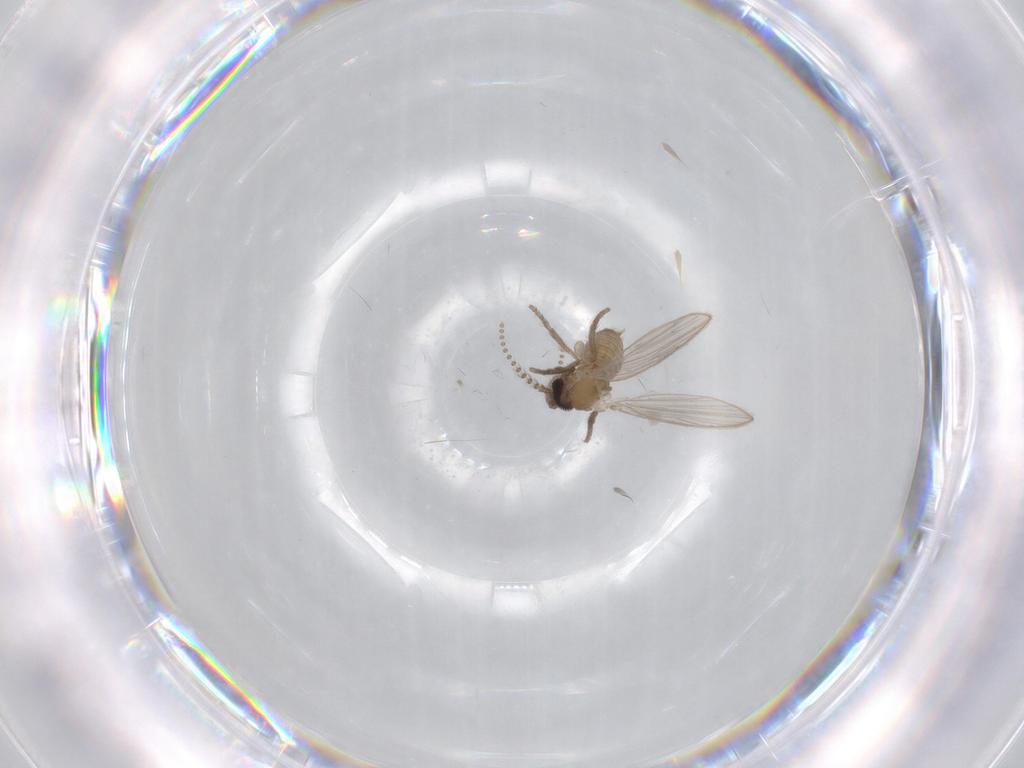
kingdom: Animalia
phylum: Arthropoda
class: Insecta
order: Diptera
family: Psychodidae
